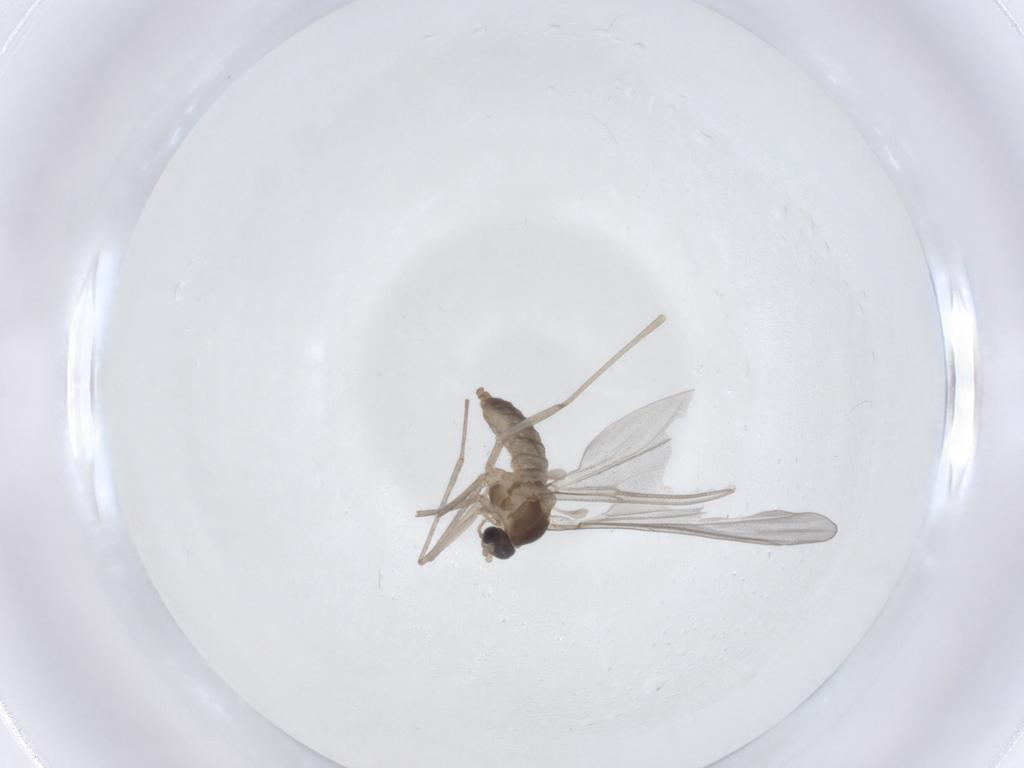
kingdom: Animalia
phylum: Arthropoda
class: Insecta
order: Diptera
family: Cecidomyiidae
